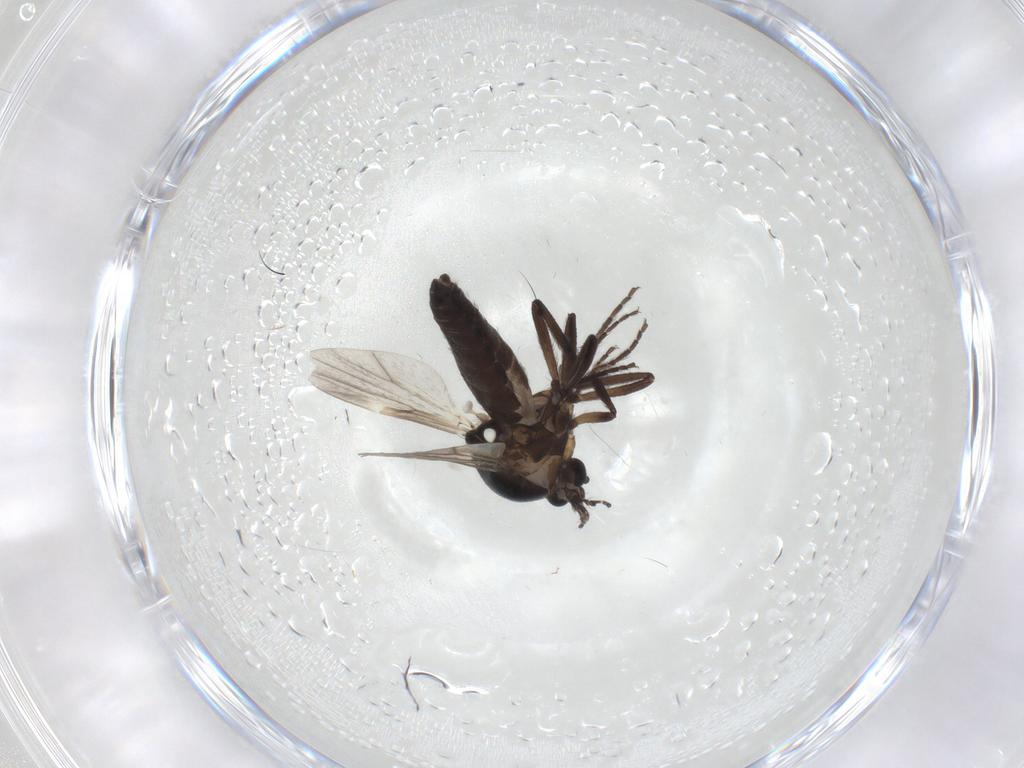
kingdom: Animalia
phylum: Arthropoda
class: Insecta
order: Diptera
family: Ceratopogonidae
